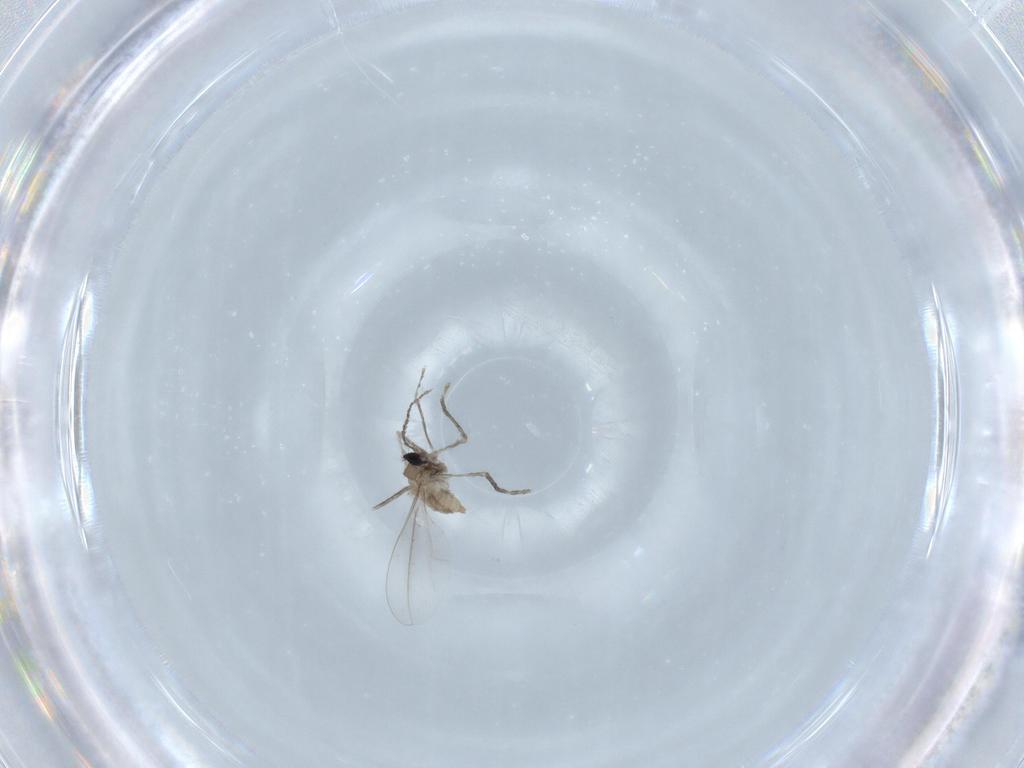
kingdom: Animalia
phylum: Arthropoda
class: Insecta
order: Diptera
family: Cecidomyiidae
